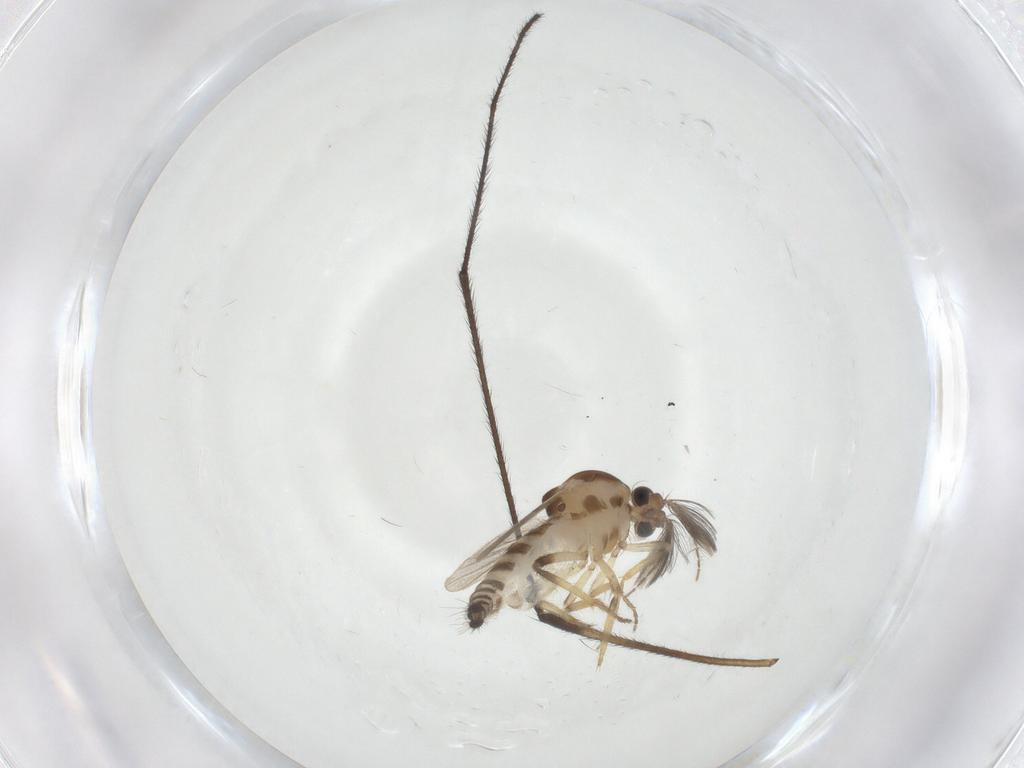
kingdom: Animalia
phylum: Arthropoda
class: Insecta
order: Diptera
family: Ceratopogonidae
